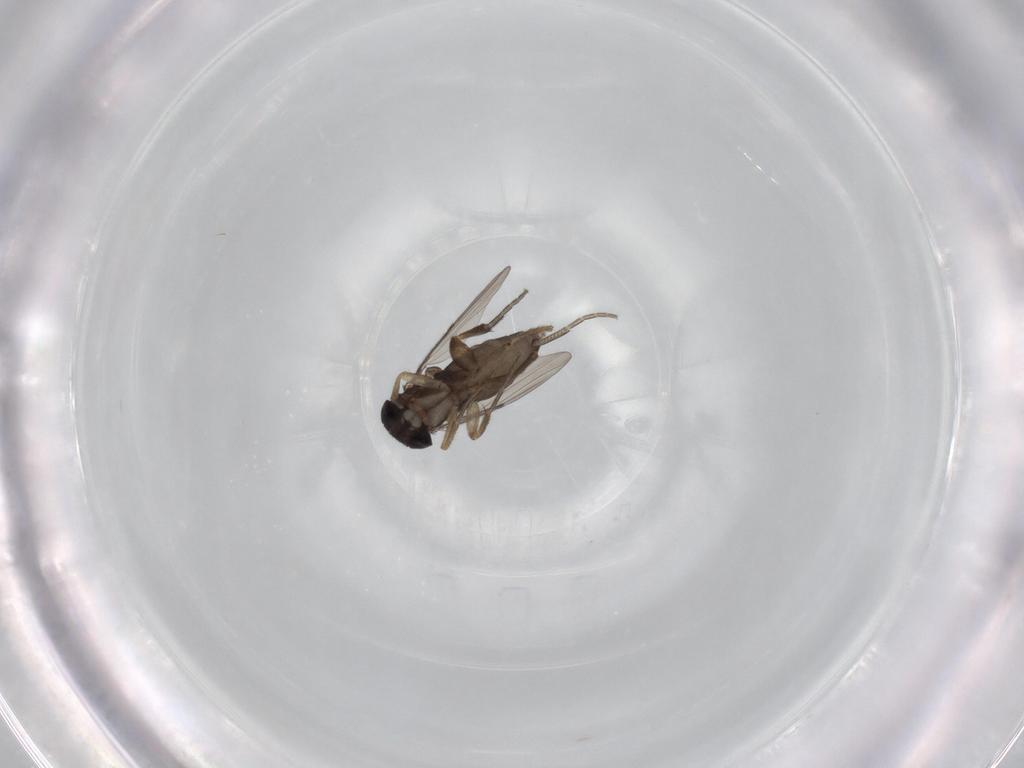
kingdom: Animalia
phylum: Arthropoda
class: Insecta
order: Diptera
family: Phoridae
